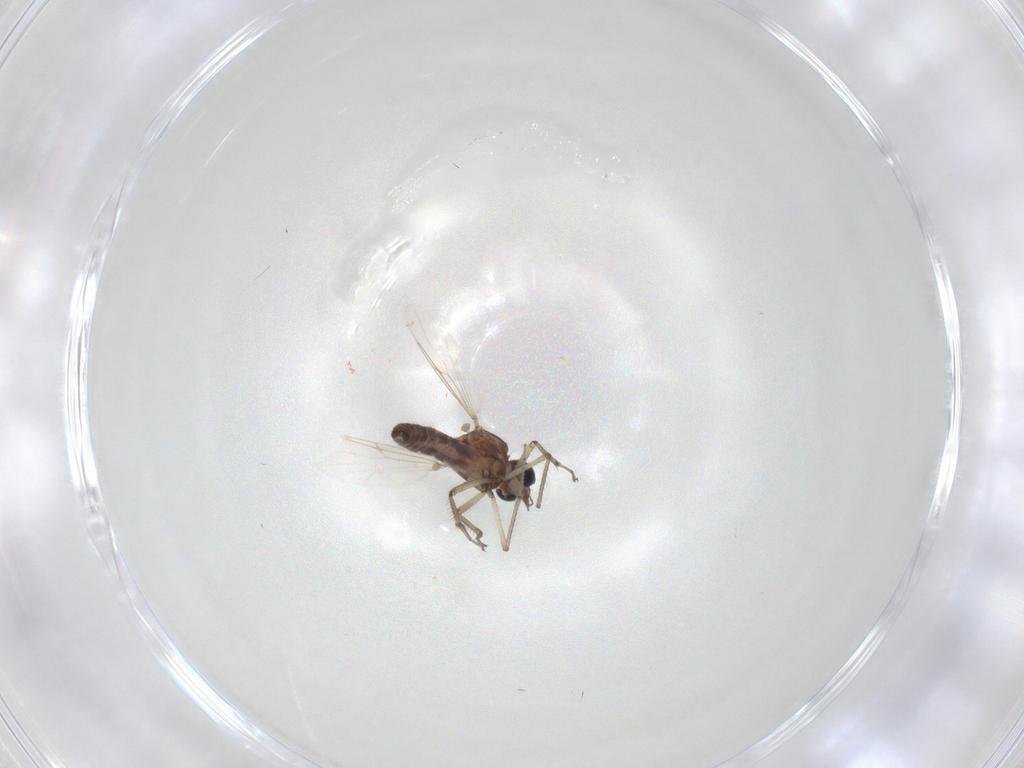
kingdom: Animalia
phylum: Arthropoda
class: Insecta
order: Diptera
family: Ceratopogonidae
